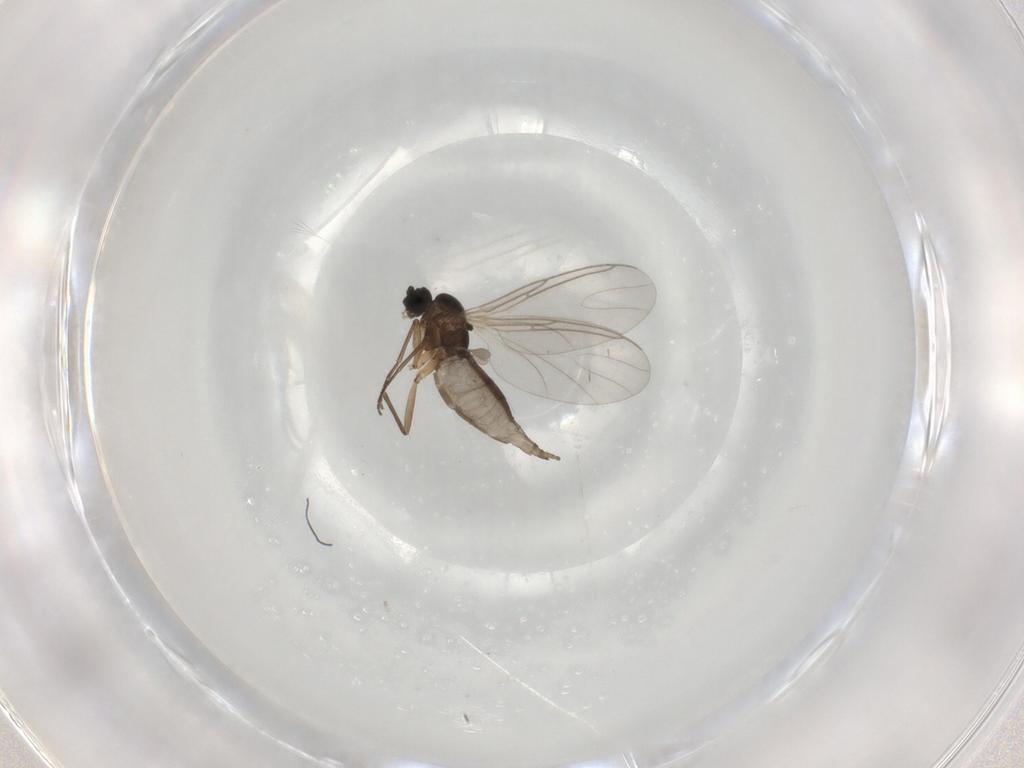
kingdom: Animalia
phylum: Arthropoda
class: Insecta
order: Diptera
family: Sciaridae
